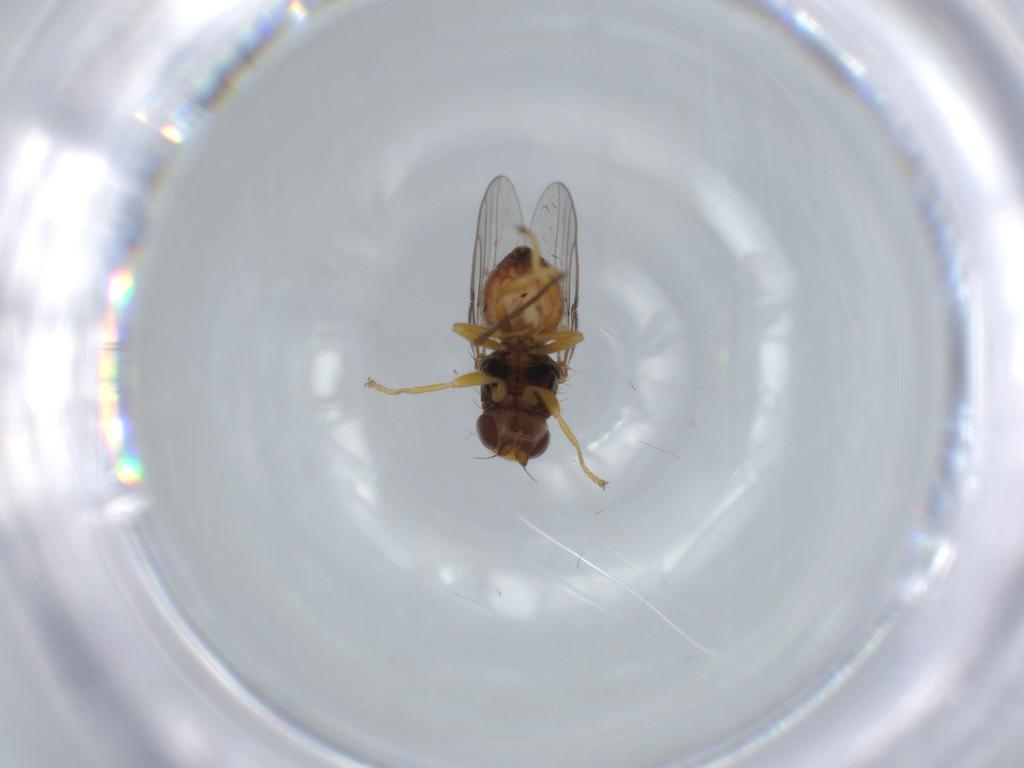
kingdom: Animalia
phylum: Arthropoda
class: Insecta
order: Diptera
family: Chloropidae
